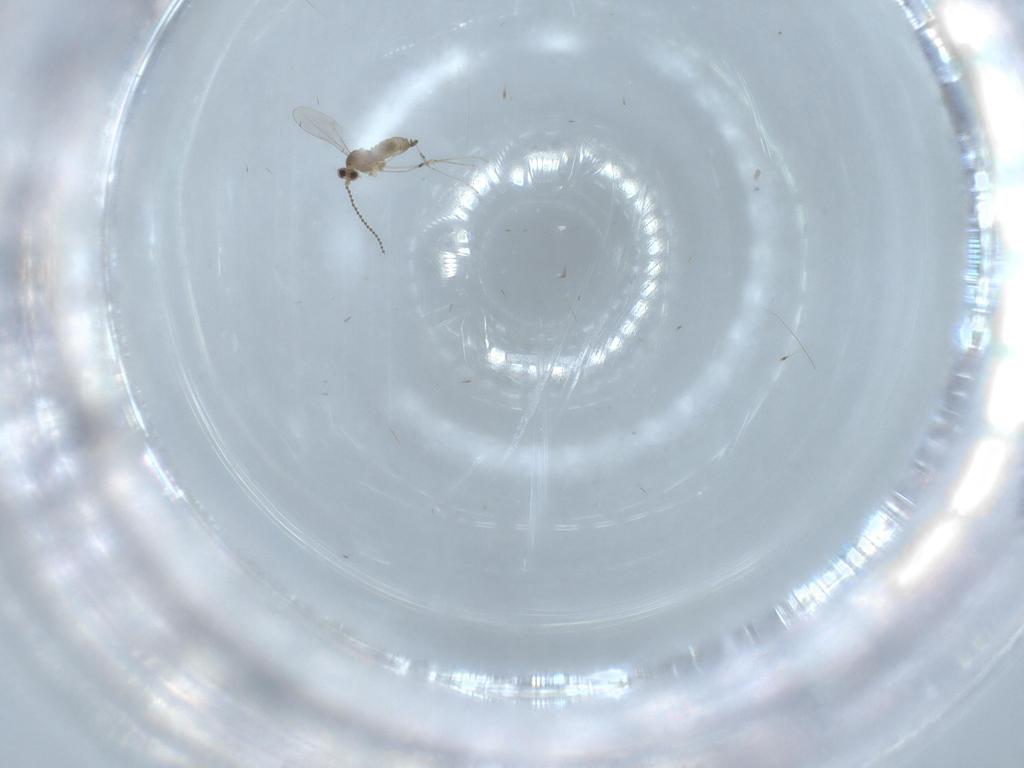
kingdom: Animalia
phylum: Arthropoda
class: Insecta
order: Diptera
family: Cecidomyiidae
